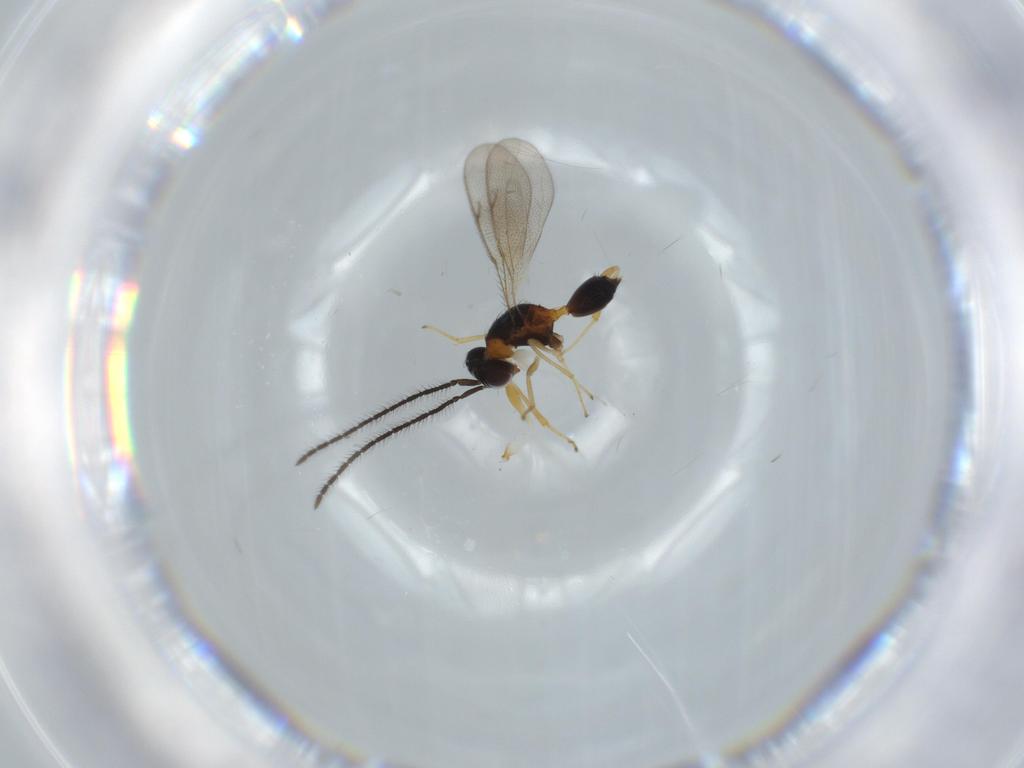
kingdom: Animalia
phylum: Arthropoda
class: Insecta
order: Hymenoptera
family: Diparidae
